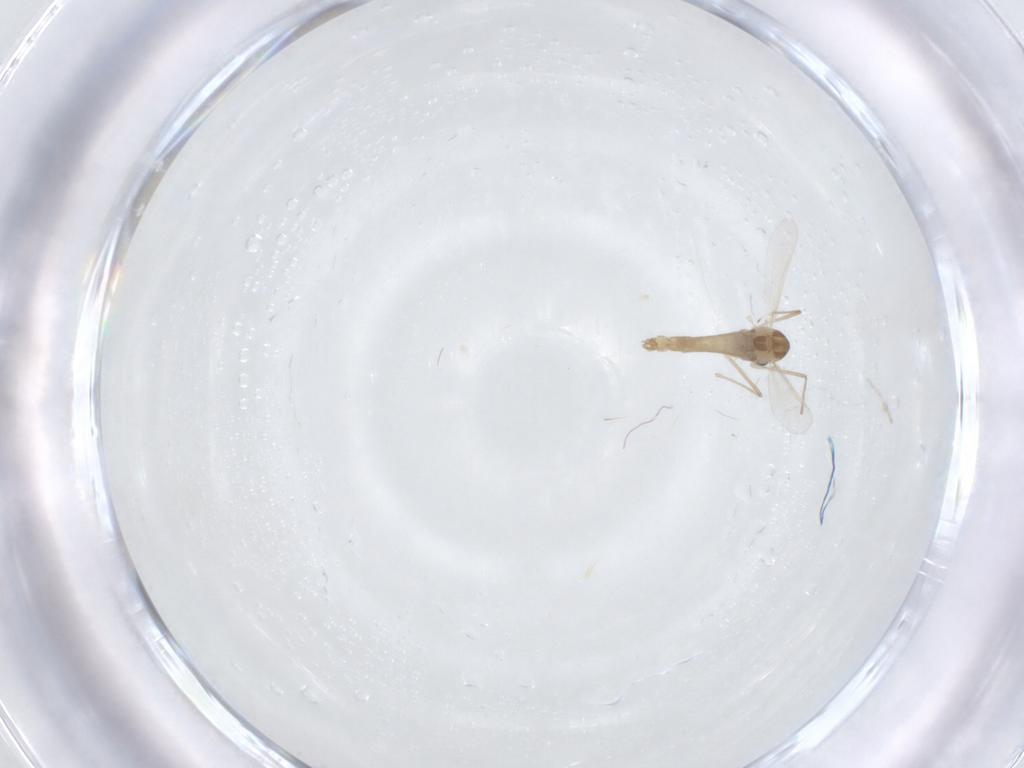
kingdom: Animalia
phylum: Arthropoda
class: Insecta
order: Diptera
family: Chironomidae
